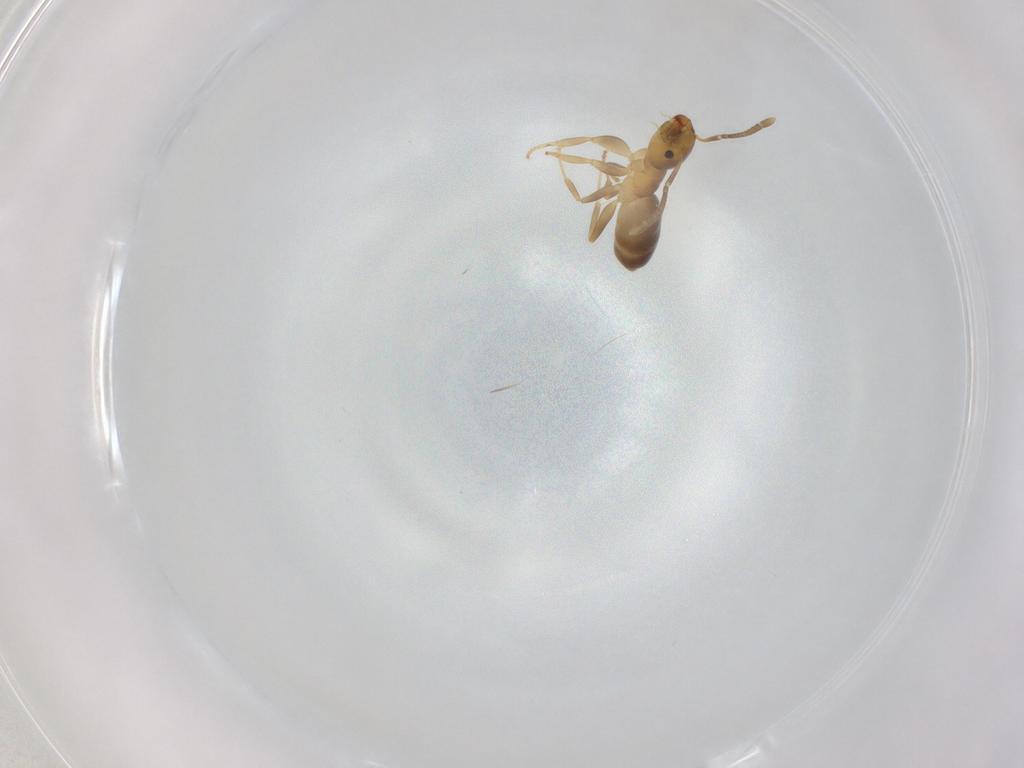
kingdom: Animalia
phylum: Arthropoda
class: Insecta
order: Hymenoptera
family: Formicidae
